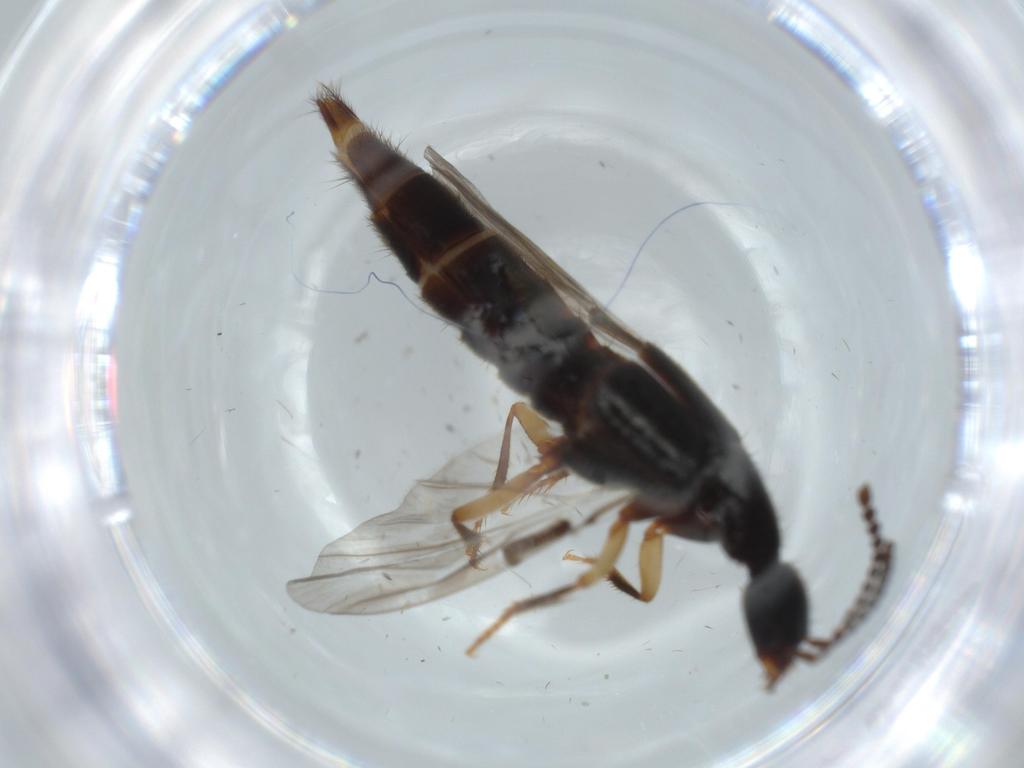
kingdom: Animalia
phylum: Arthropoda
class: Insecta
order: Coleoptera
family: Staphylinidae
